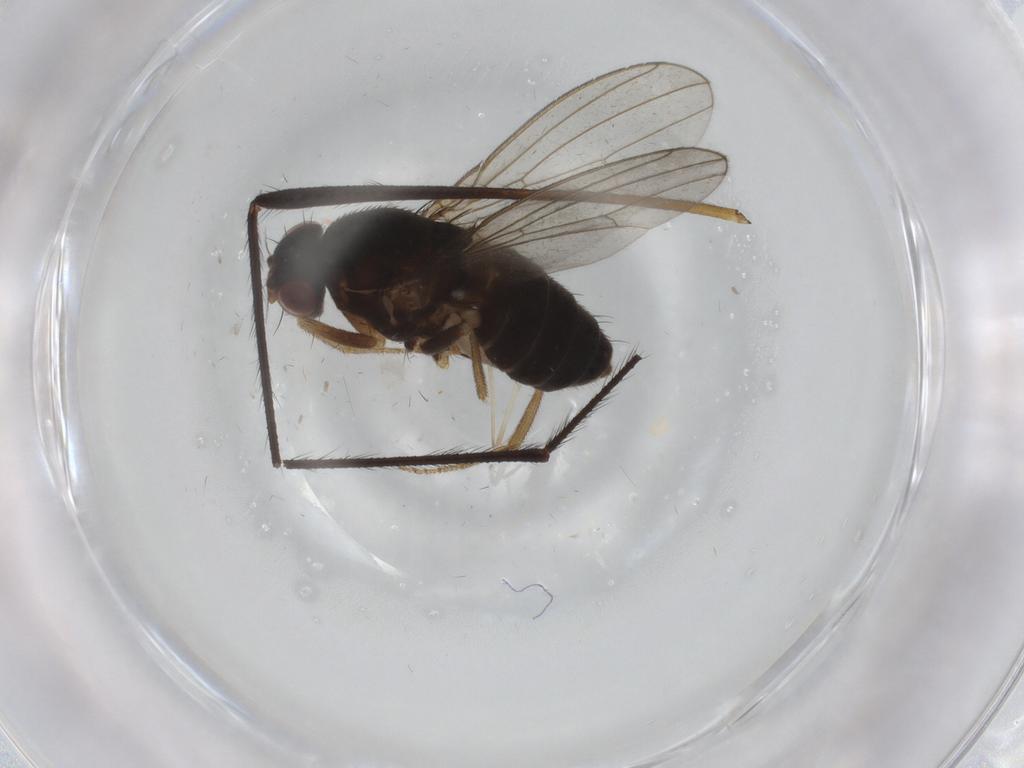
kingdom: Animalia
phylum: Arthropoda
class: Insecta
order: Diptera
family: Drosophilidae
